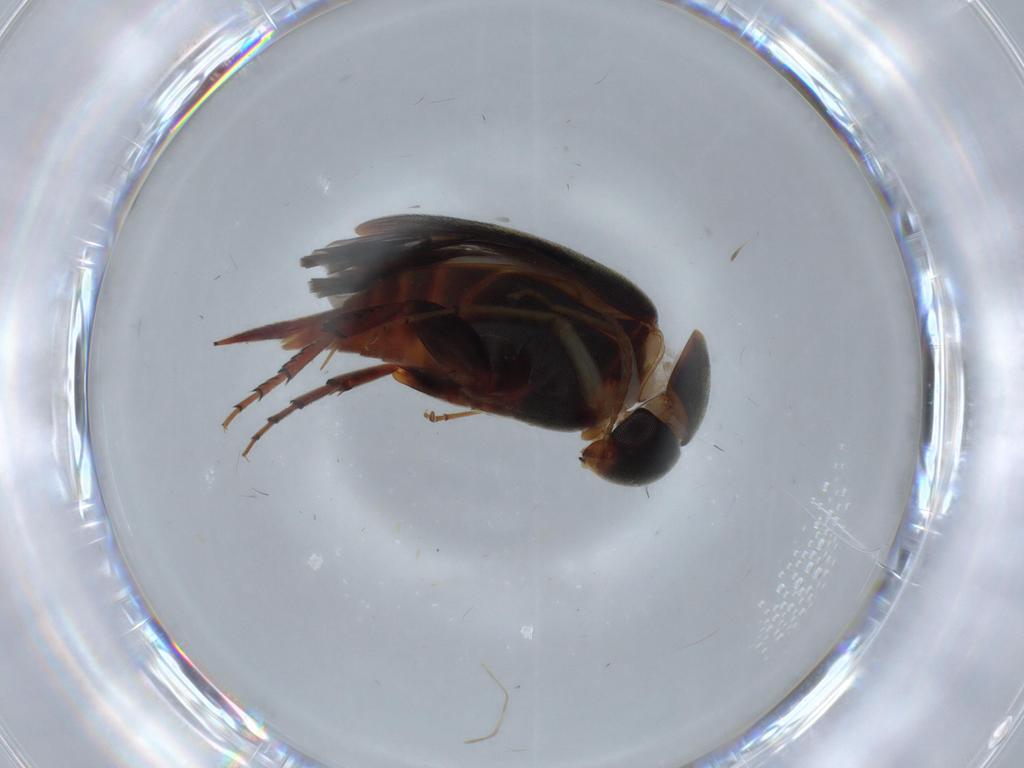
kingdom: Animalia
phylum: Arthropoda
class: Insecta
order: Coleoptera
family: Mordellidae
